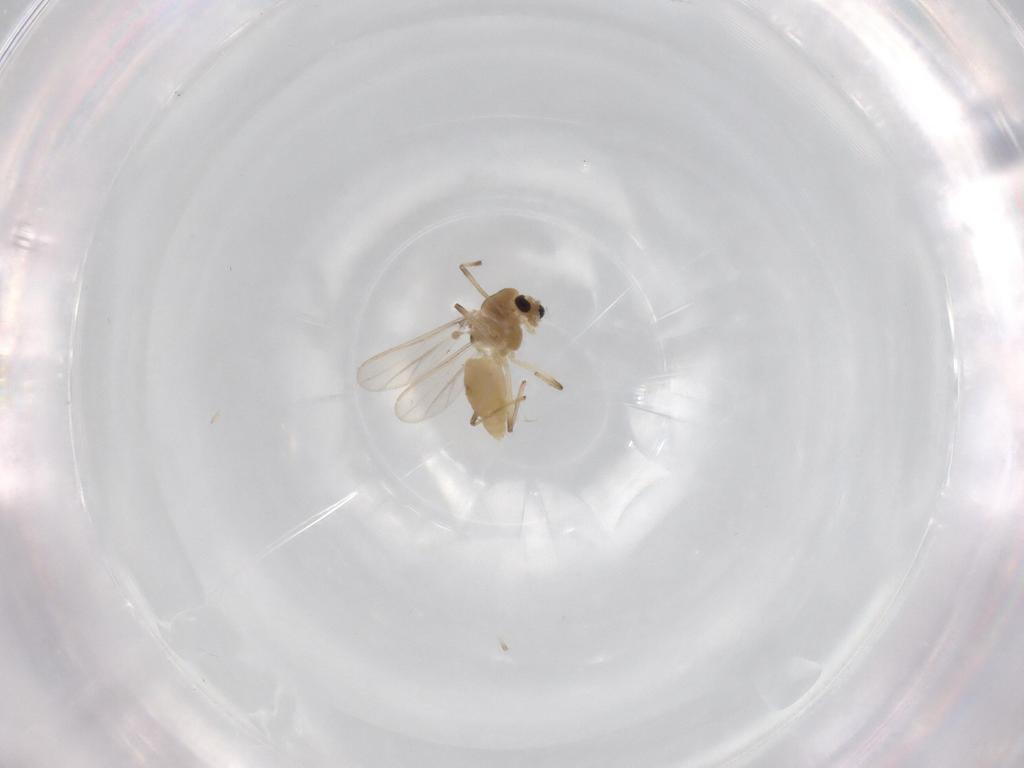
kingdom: Animalia
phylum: Arthropoda
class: Insecta
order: Diptera
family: Chironomidae
